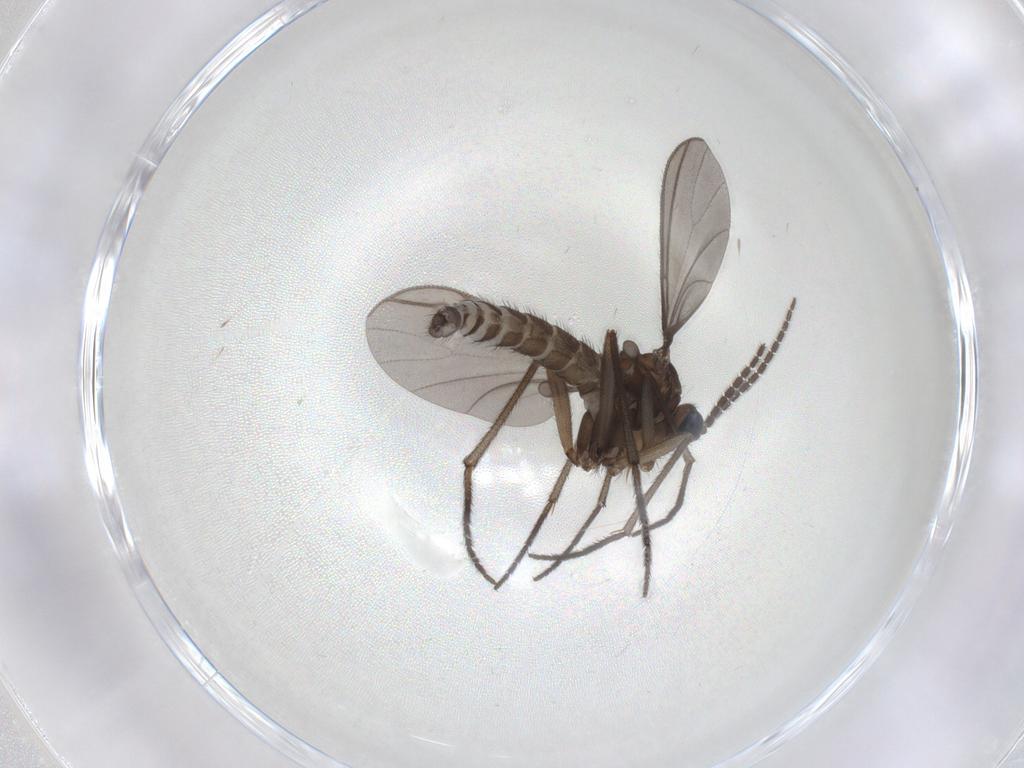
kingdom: Animalia
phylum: Arthropoda
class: Insecta
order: Diptera
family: Sciaridae
